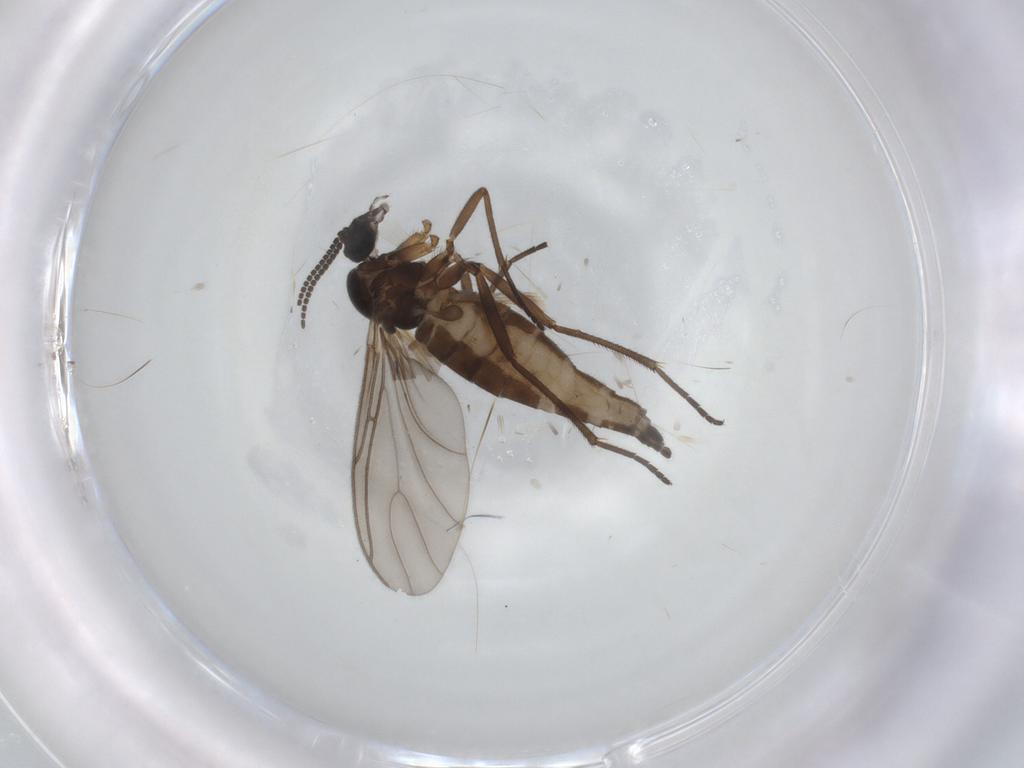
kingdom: Animalia
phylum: Arthropoda
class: Insecta
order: Diptera
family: Sciaridae
